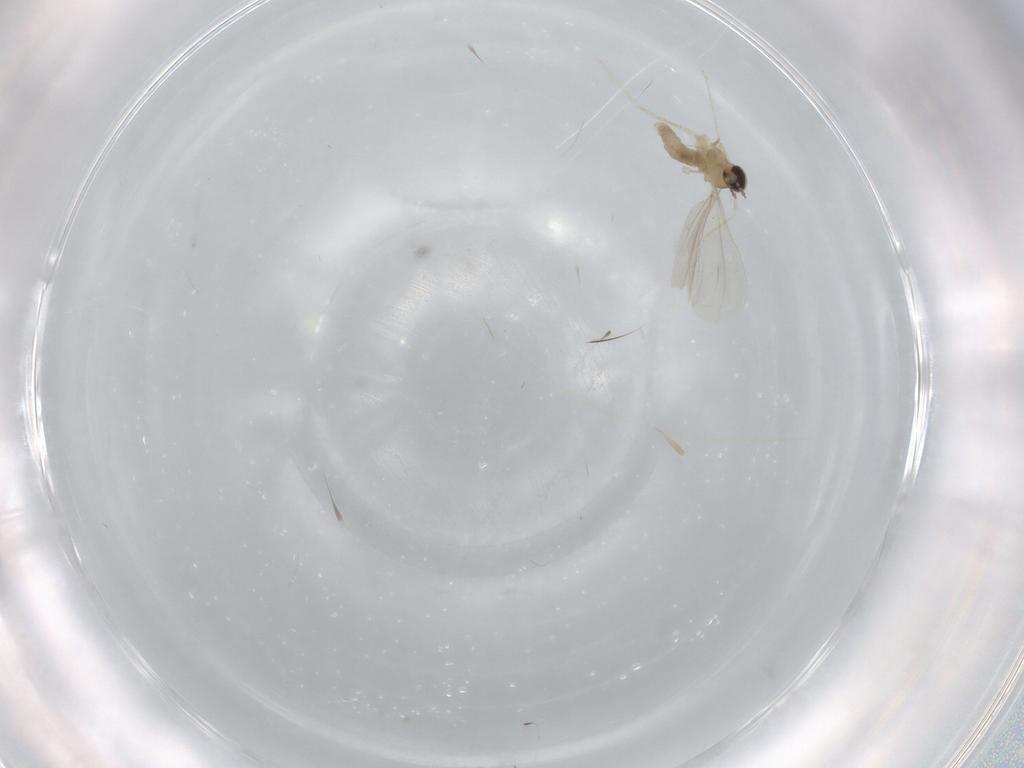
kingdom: Animalia
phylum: Arthropoda
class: Insecta
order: Diptera
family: Cecidomyiidae
